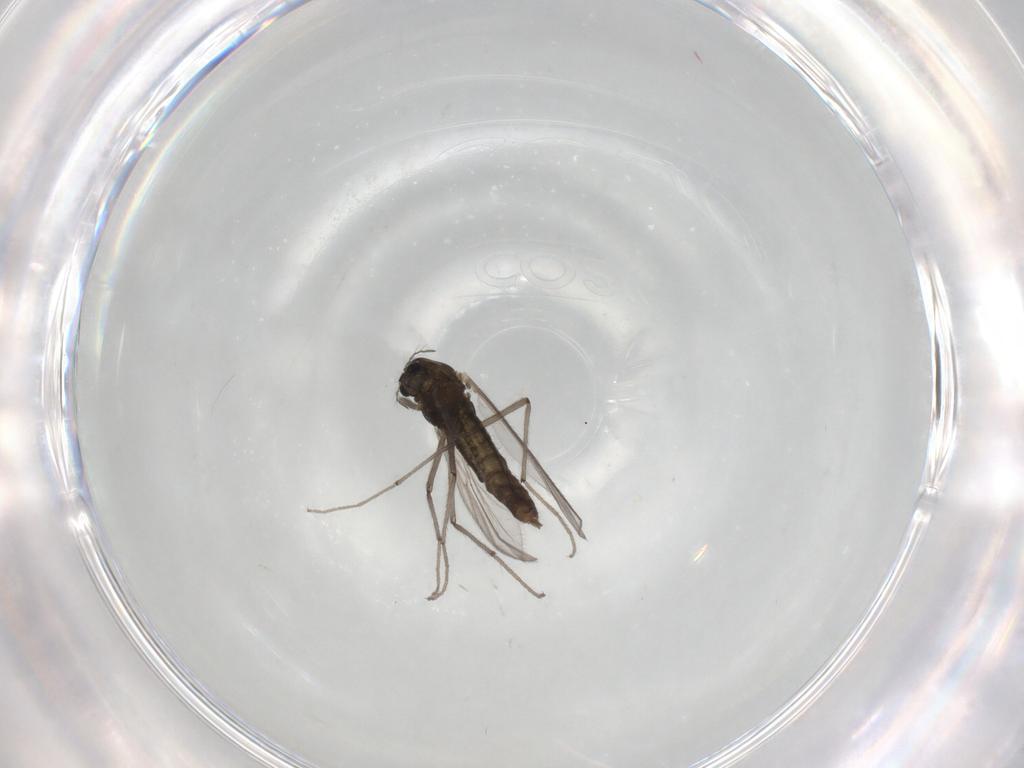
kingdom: Animalia
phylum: Arthropoda
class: Insecta
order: Diptera
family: Chironomidae
